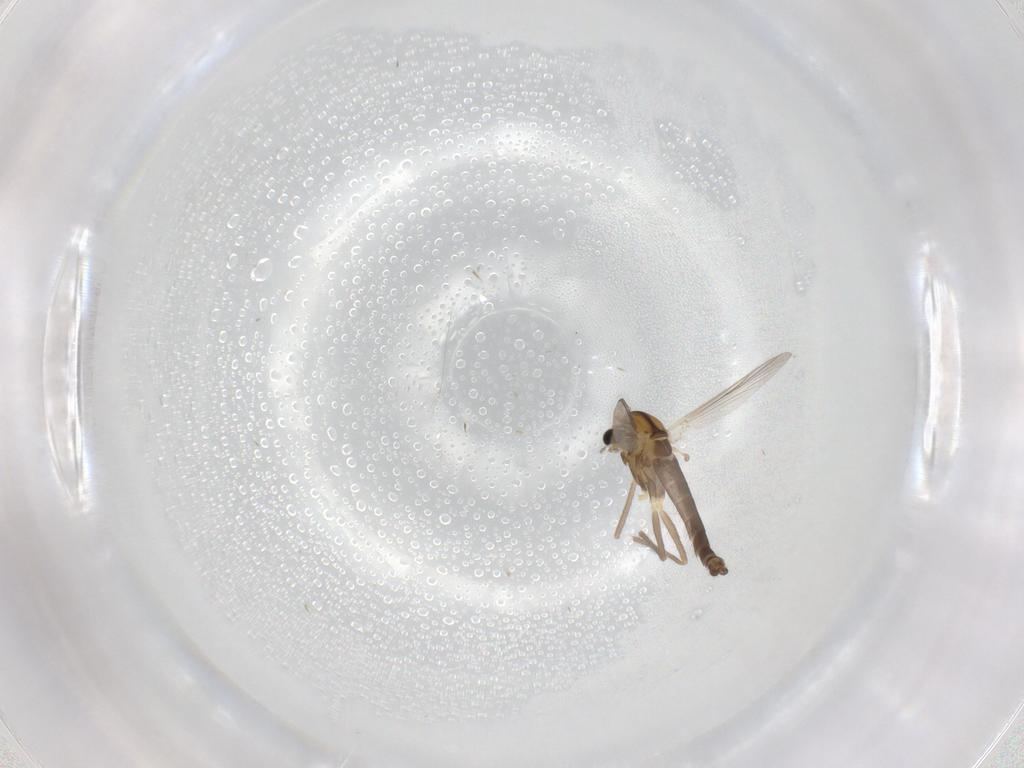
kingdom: Animalia
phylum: Arthropoda
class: Insecta
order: Diptera
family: Chironomidae
